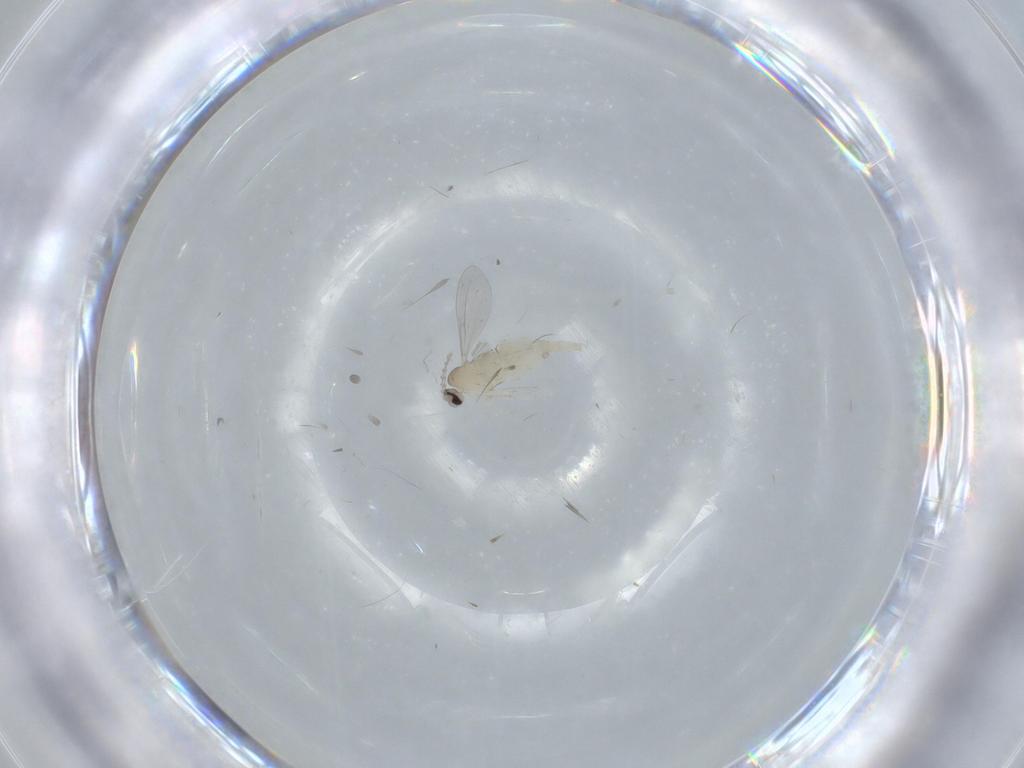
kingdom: Animalia
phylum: Arthropoda
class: Insecta
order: Diptera
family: Cecidomyiidae
